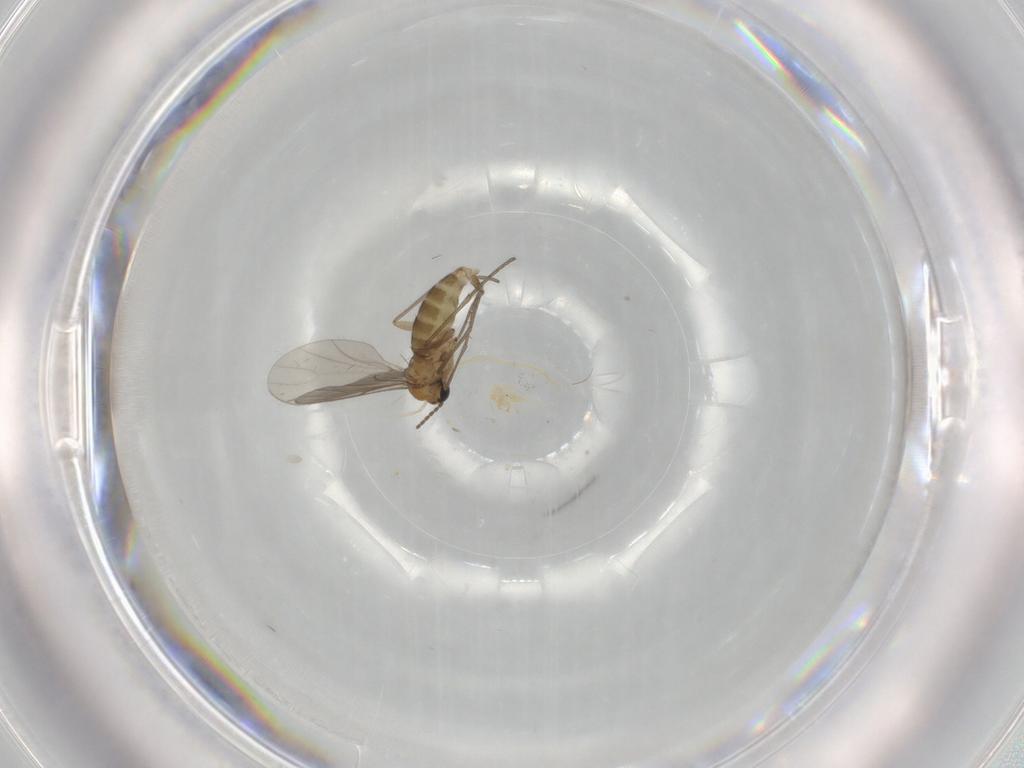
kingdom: Animalia
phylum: Arthropoda
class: Insecta
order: Diptera
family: Sciaridae
